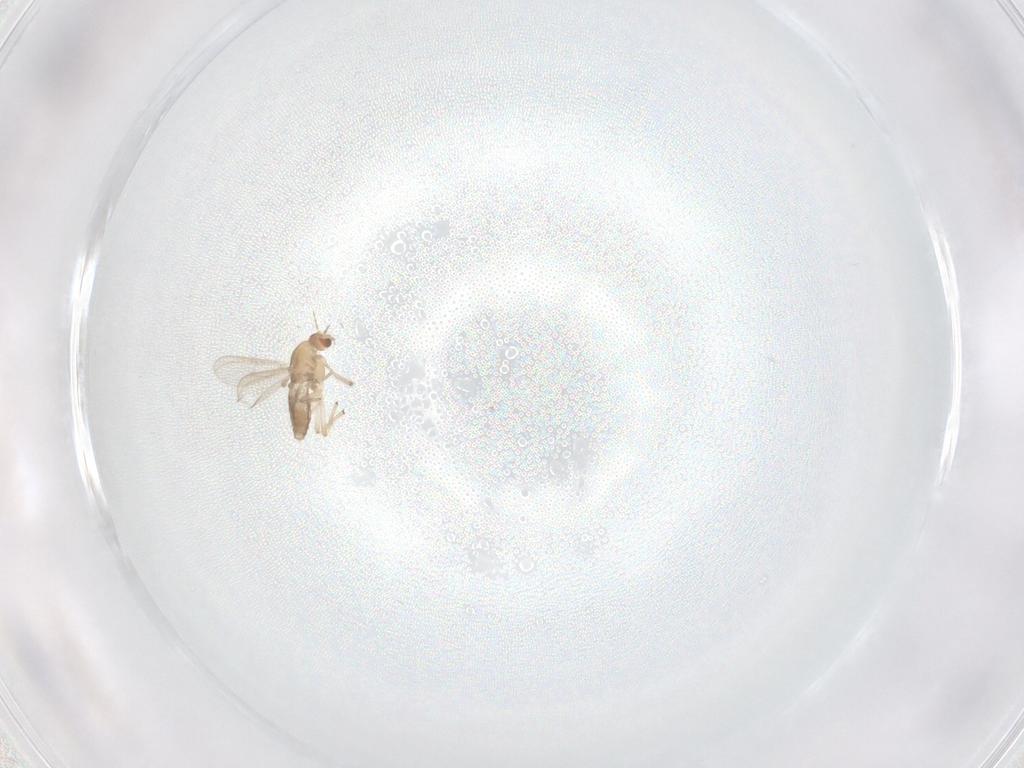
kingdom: Animalia
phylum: Arthropoda
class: Insecta
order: Diptera
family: Chironomidae
